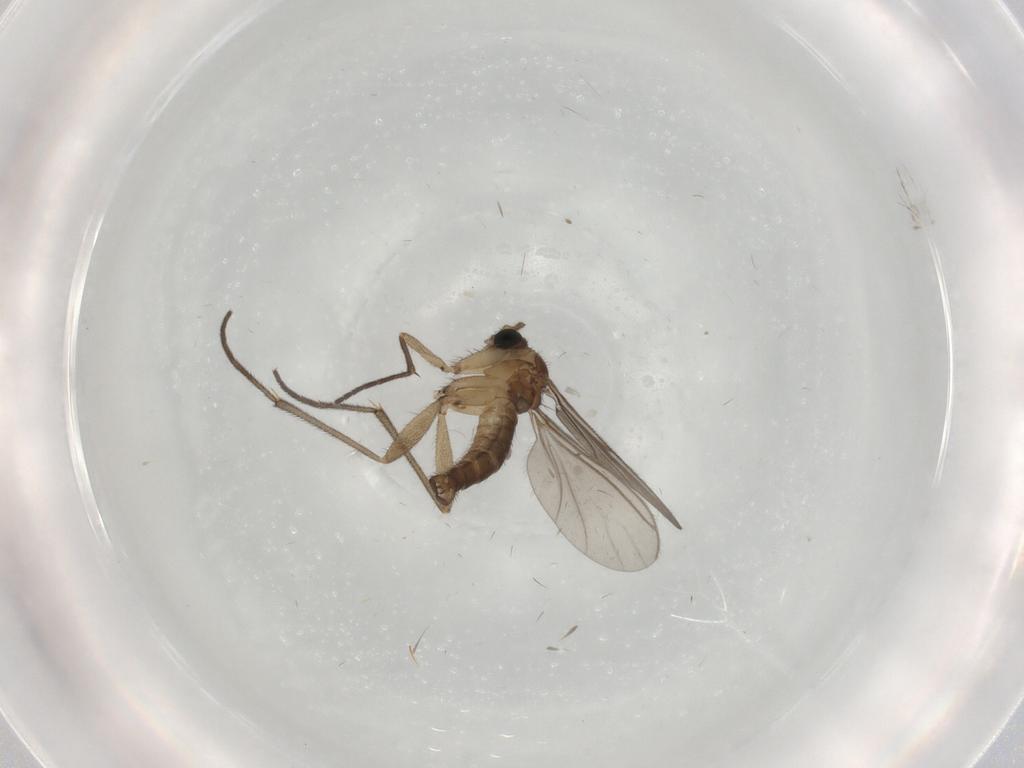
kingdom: Animalia
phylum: Arthropoda
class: Insecta
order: Diptera
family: Sciaridae
